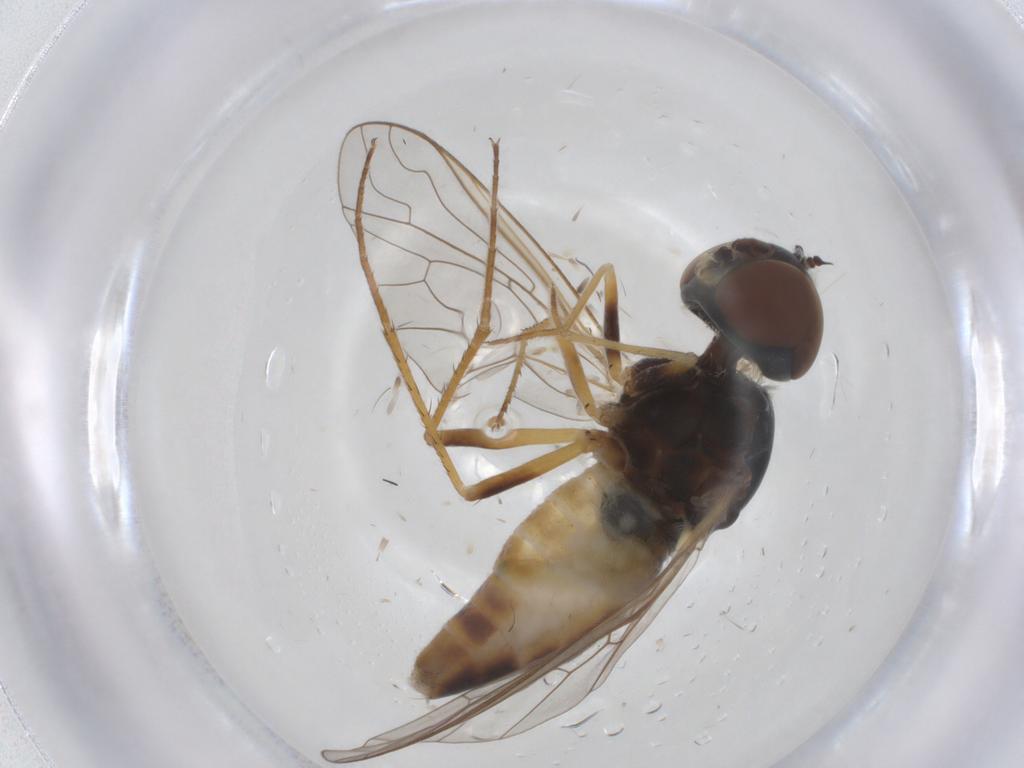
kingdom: Animalia
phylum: Arthropoda
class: Insecta
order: Diptera
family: Bombyliidae
